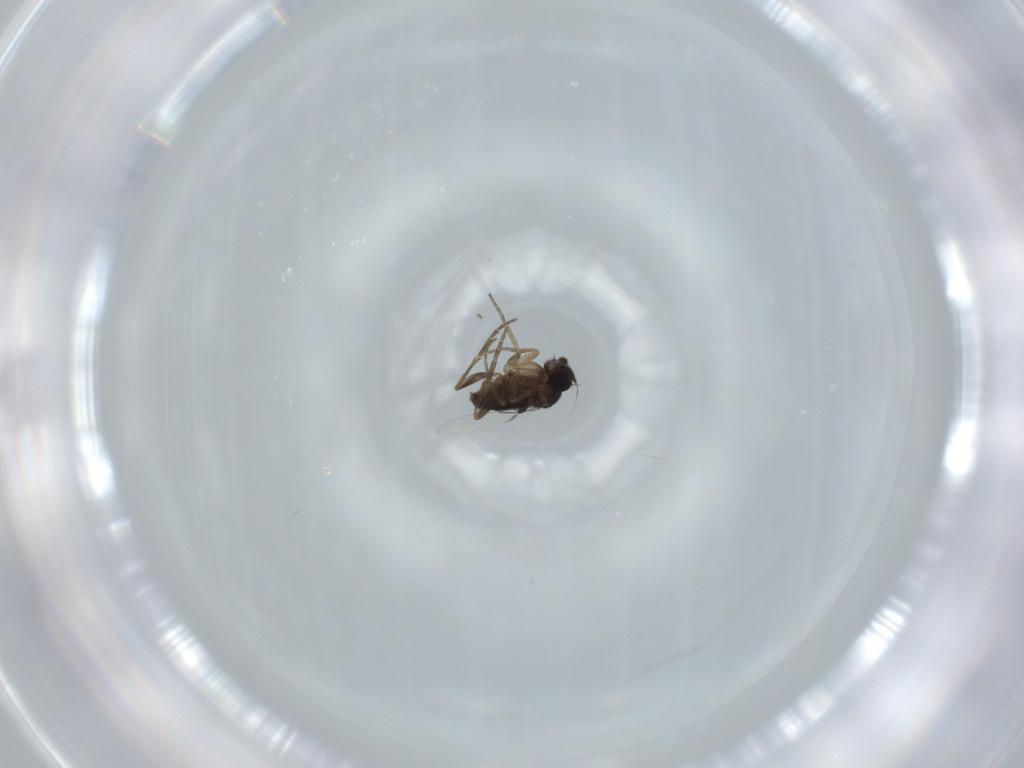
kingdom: Animalia
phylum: Arthropoda
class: Insecta
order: Diptera
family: Phoridae
